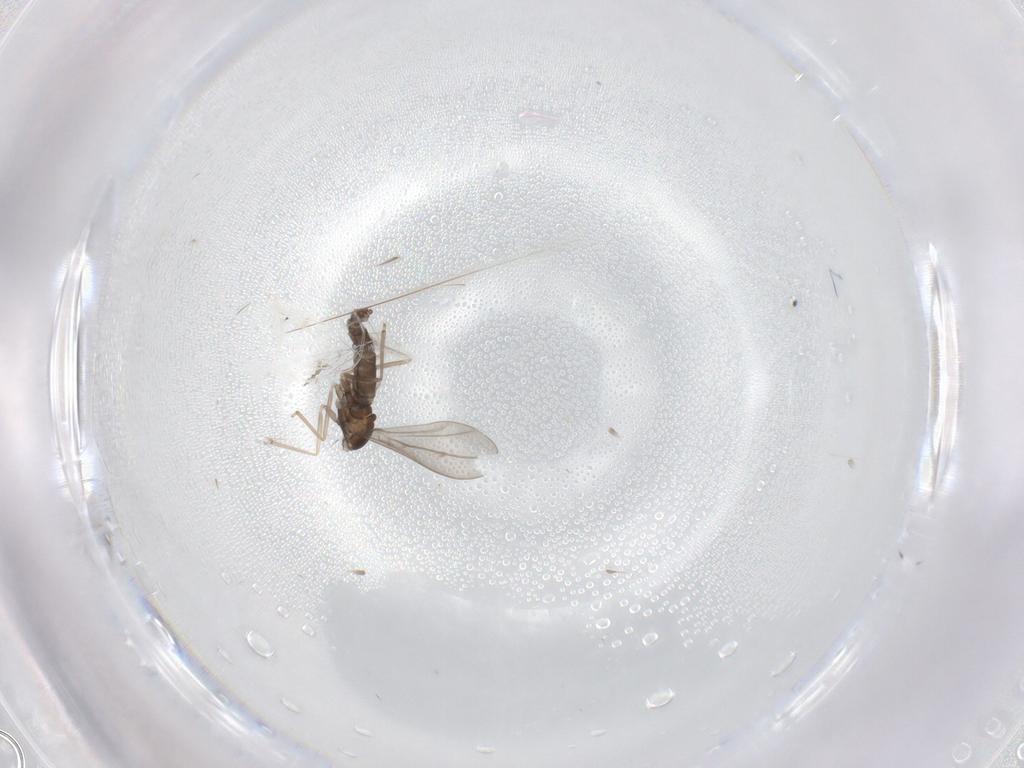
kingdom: Animalia
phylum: Arthropoda
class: Insecta
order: Diptera
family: Cecidomyiidae
